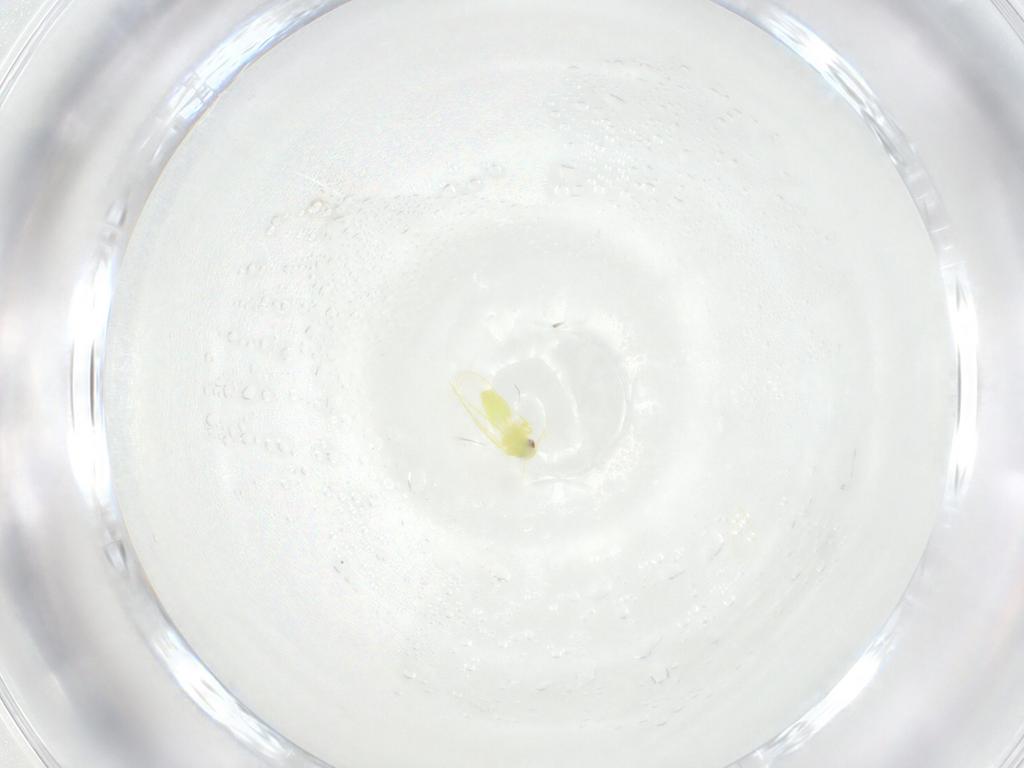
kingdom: Animalia
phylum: Arthropoda
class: Insecta
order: Hemiptera
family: Aleyrodidae
